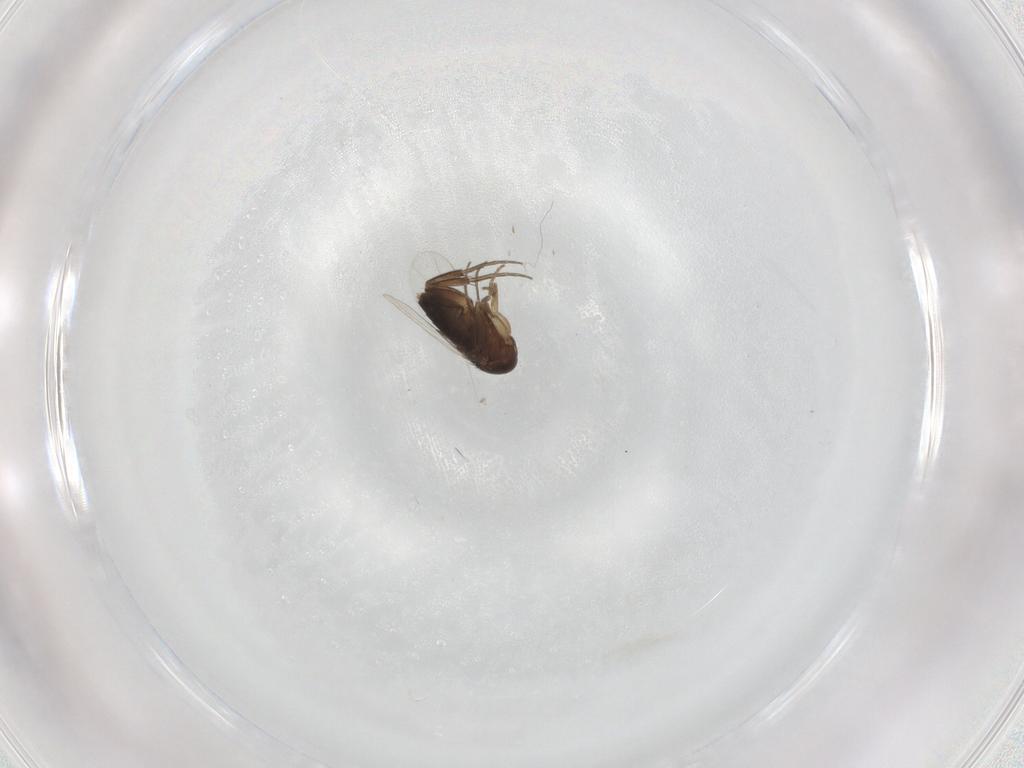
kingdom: Animalia
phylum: Arthropoda
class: Insecta
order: Diptera
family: Phoridae
